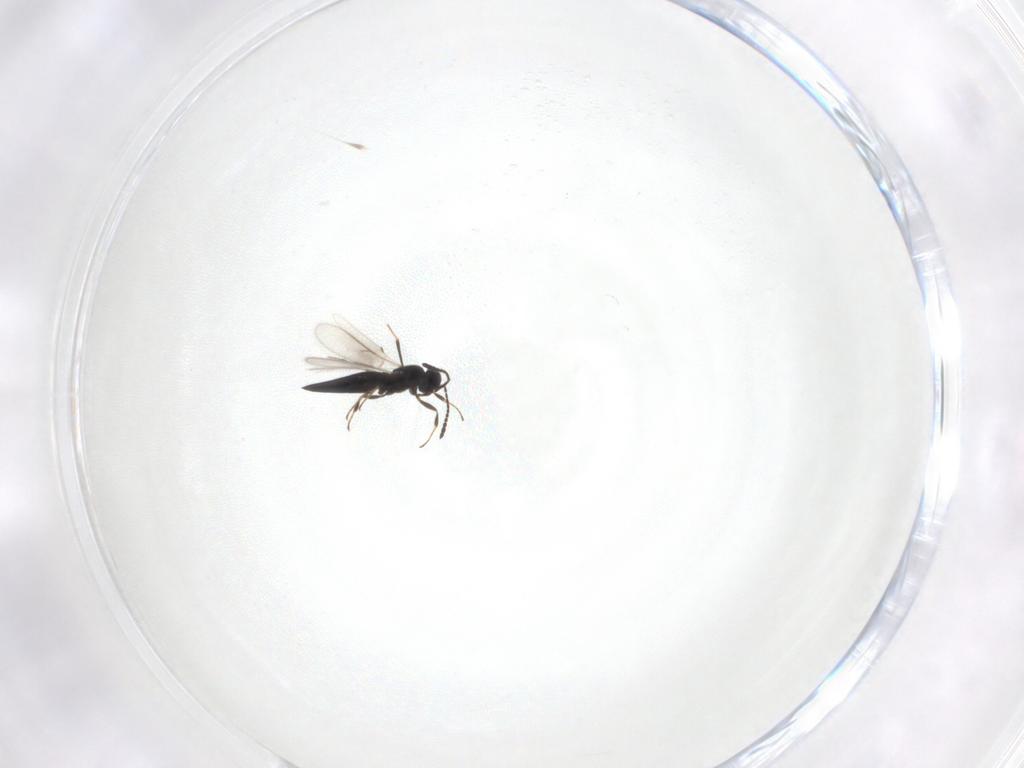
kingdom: Animalia
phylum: Arthropoda
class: Insecta
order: Hymenoptera
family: Scelionidae
